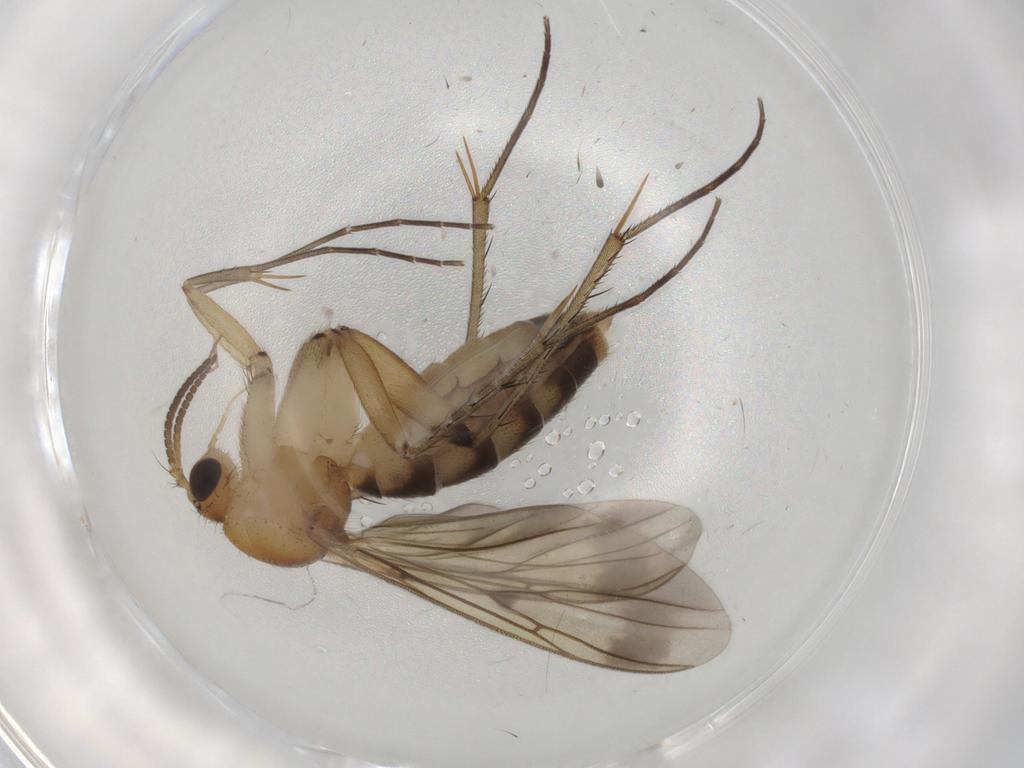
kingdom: Animalia
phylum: Arthropoda
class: Insecta
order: Diptera
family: Mycetophilidae
